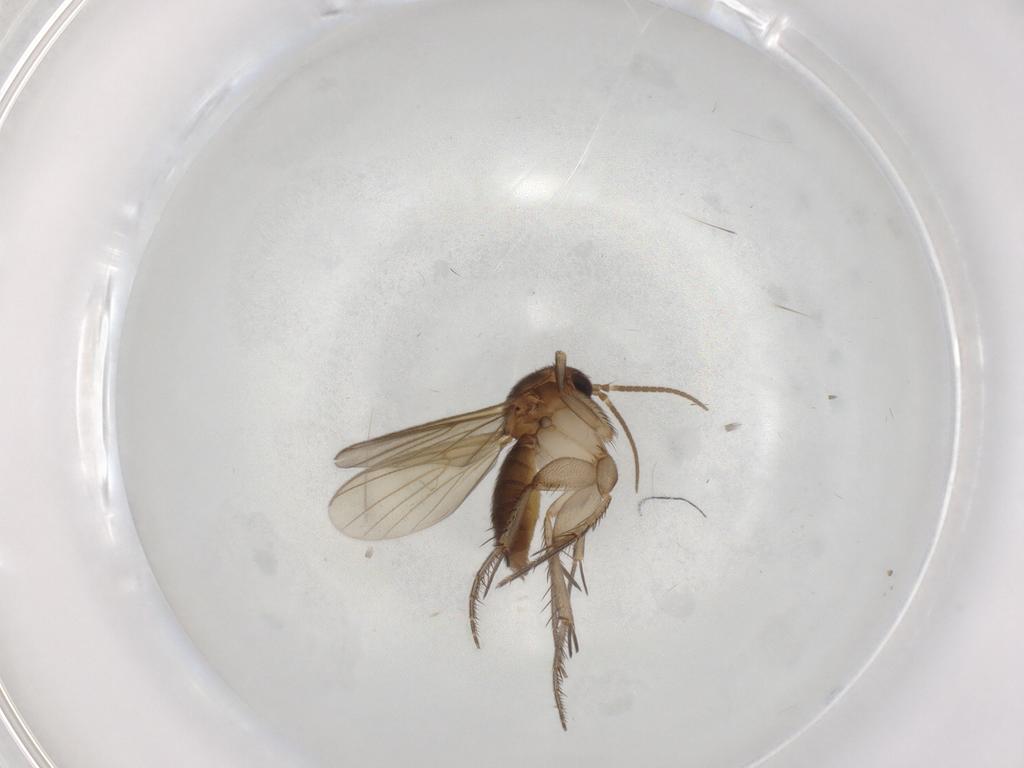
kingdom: Animalia
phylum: Arthropoda
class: Insecta
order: Diptera
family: Mycetophilidae
